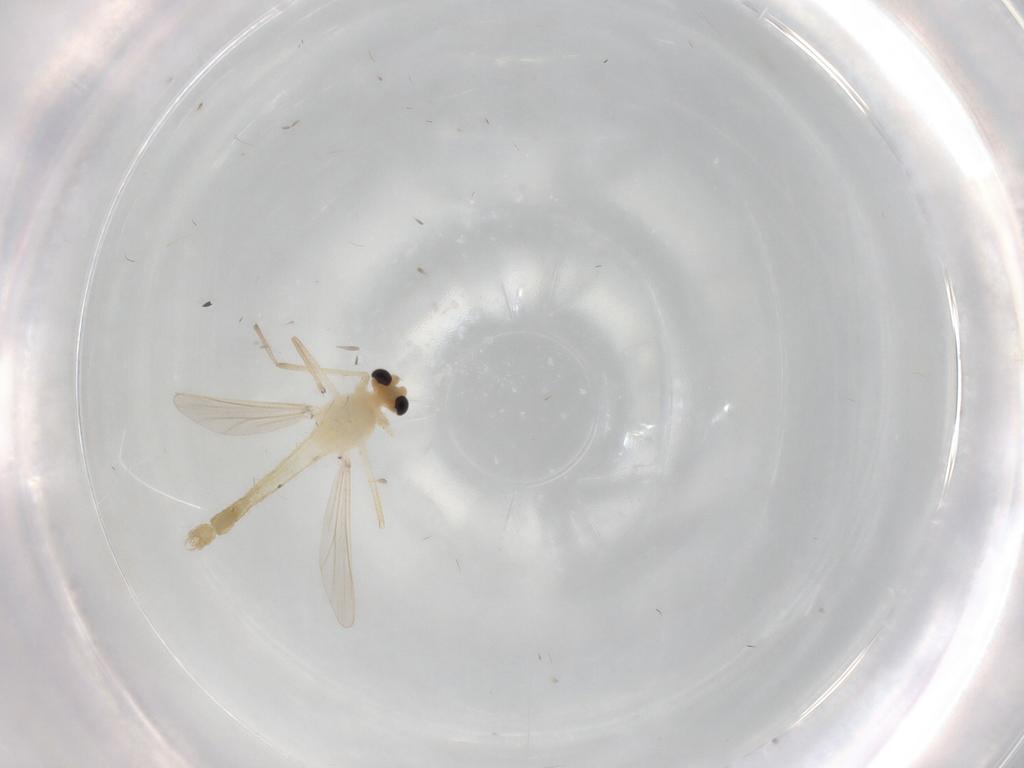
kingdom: Animalia
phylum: Arthropoda
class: Insecta
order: Diptera
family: Chironomidae
